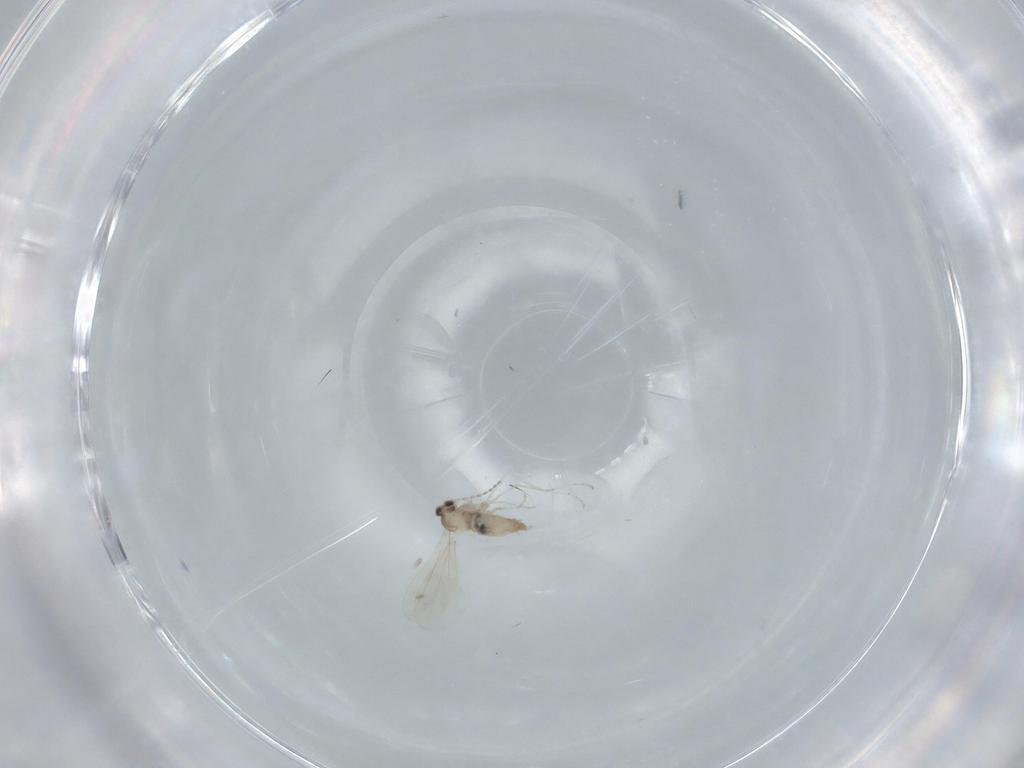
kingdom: Animalia
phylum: Arthropoda
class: Insecta
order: Diptera
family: Cecidomyiidae
